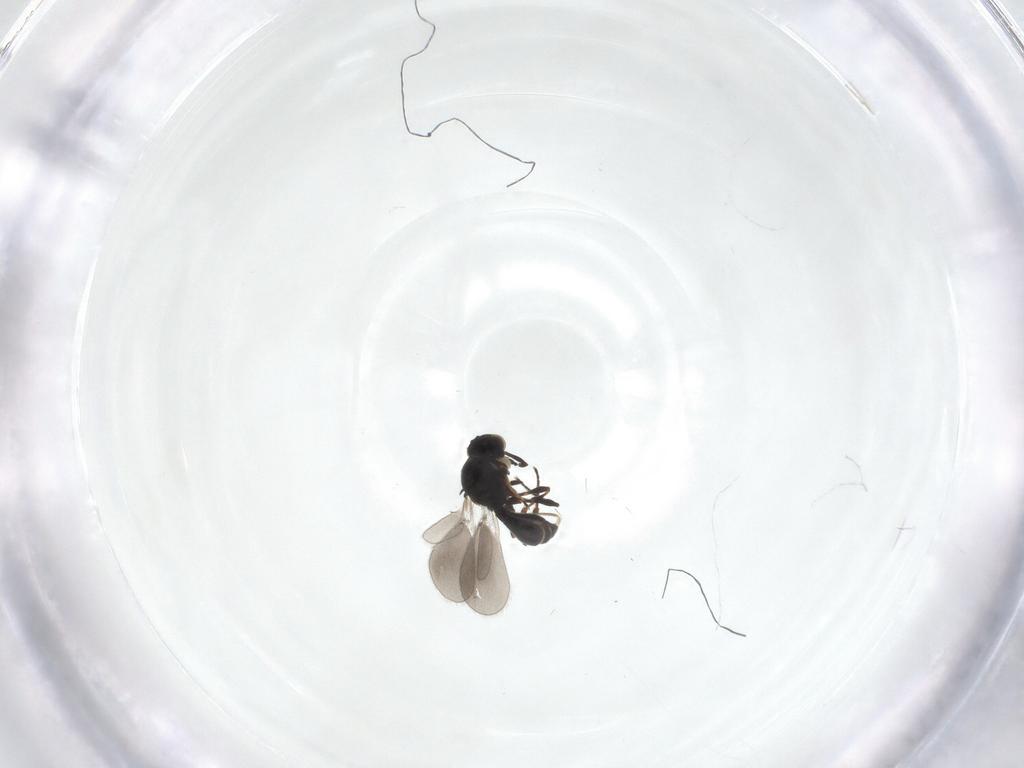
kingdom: Animalia
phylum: Arthropoda
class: Insecta
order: Hymenoptera
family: Platygastridae
